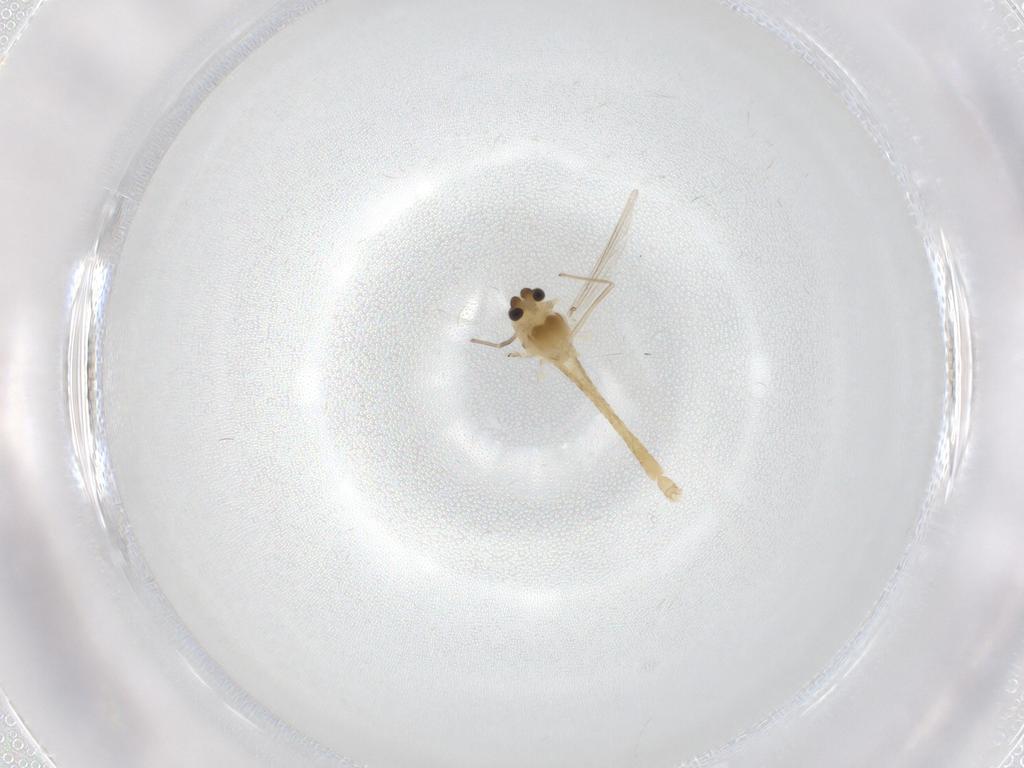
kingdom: Animalia
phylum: Arthropoda
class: Insecta
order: Diptera
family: Chironomidae
